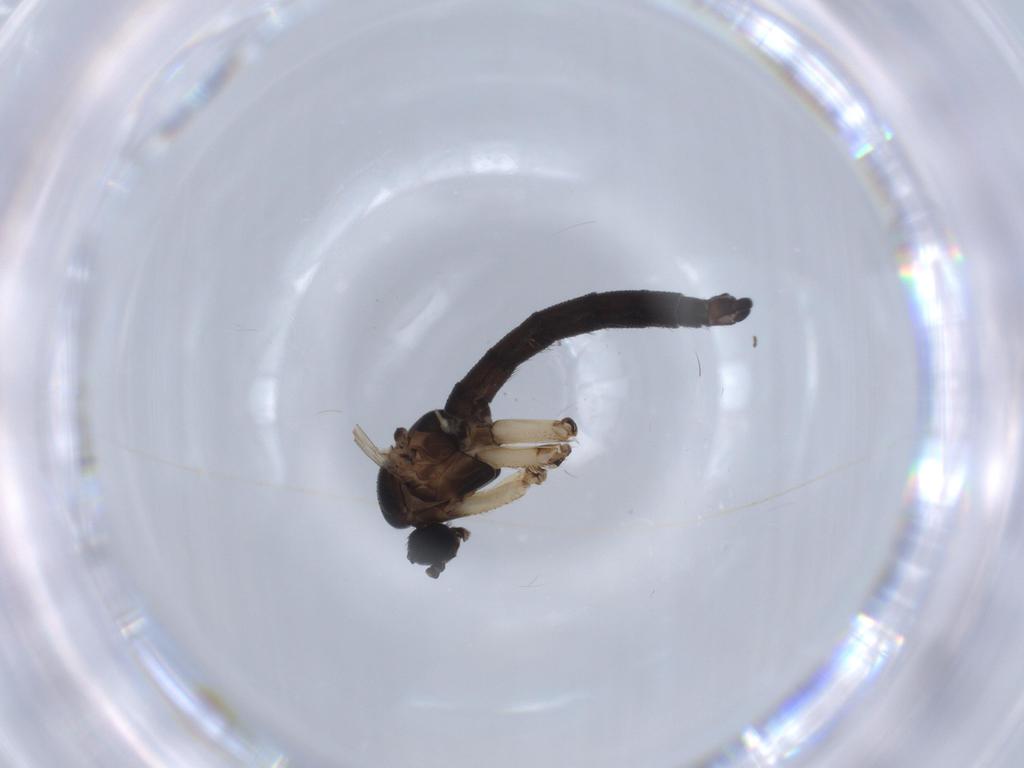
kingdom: Animalia
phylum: Arthropoda
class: Insecta
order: Diptera
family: Sciaridae
